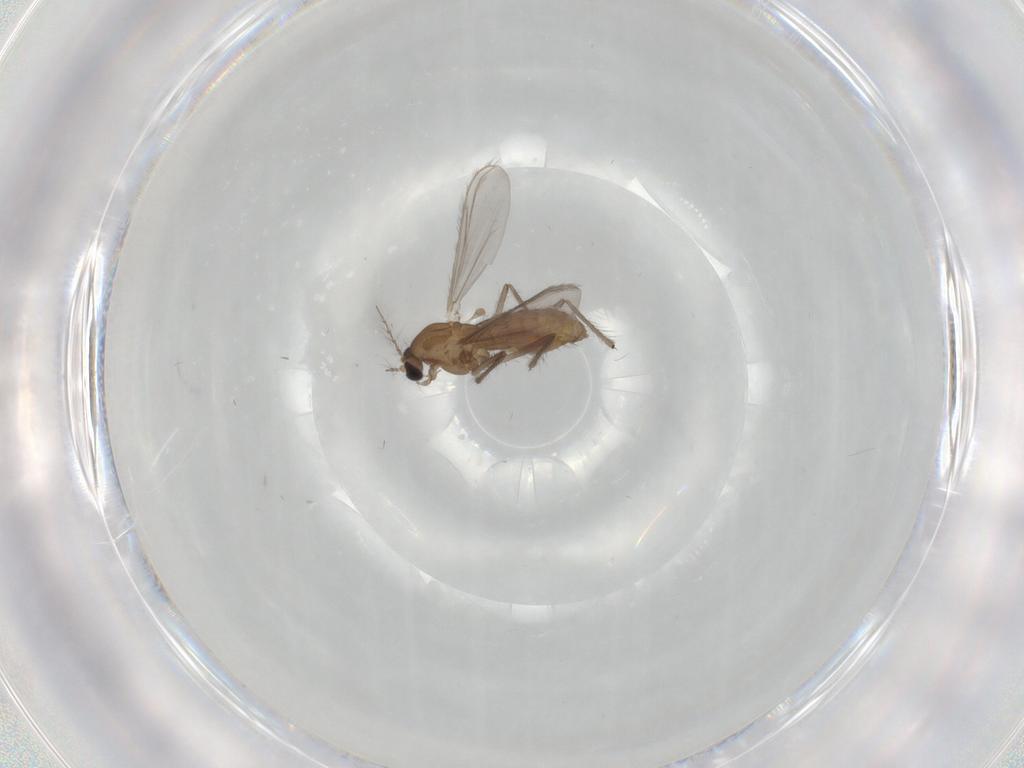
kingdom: Animalia
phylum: Arthropoda
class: Insecta
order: Diptera
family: Chironomidae
